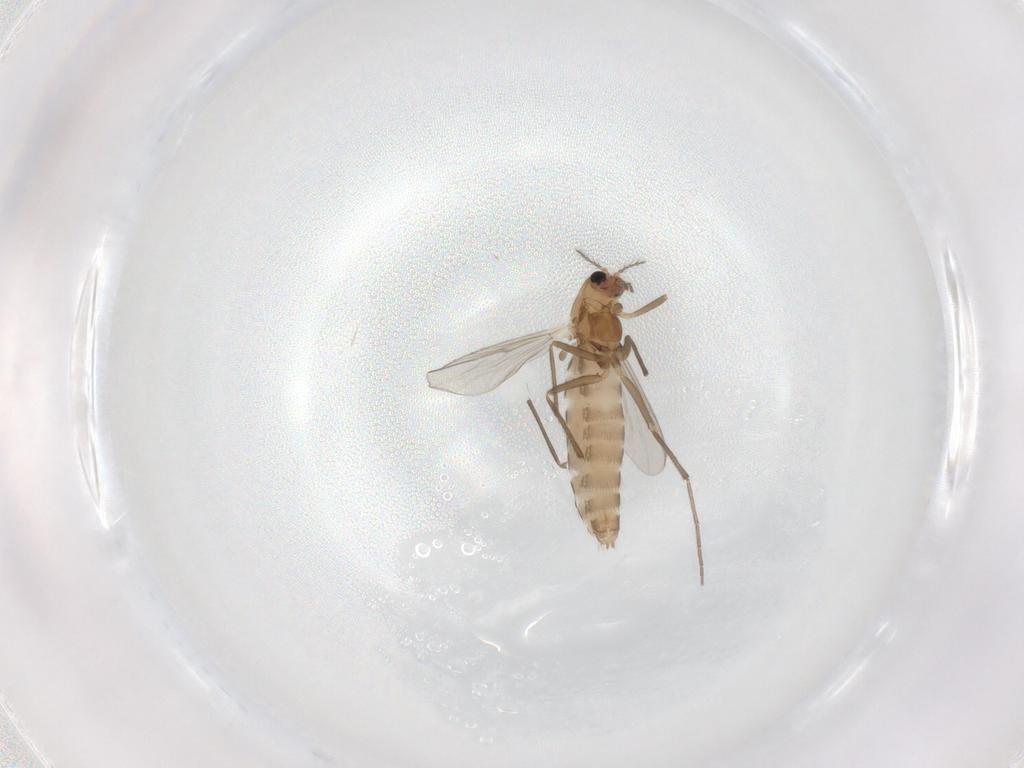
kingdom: Animalia
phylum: Arthropoda
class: Insecta
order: Diptera
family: Chironomidae
